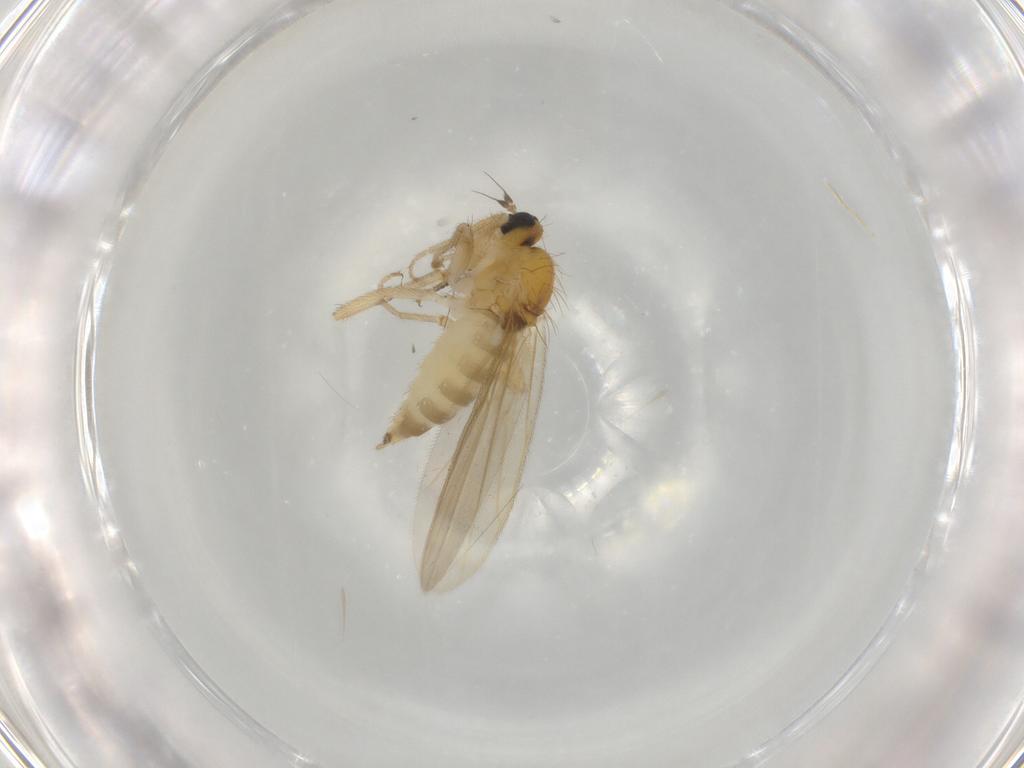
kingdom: Animalia
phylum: Arthropoda
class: Insecta
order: Diptera
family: Hybotidae
